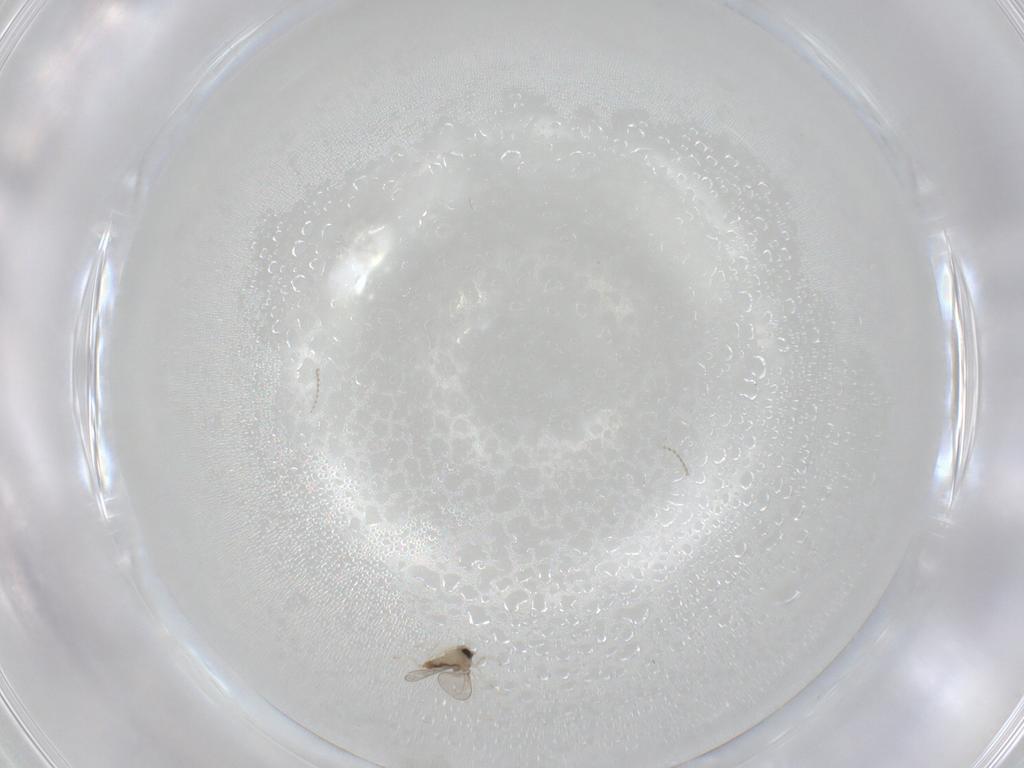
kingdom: Animalia
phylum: Arthropoda
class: Insecta
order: Diptera
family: Cecidomyiidae
